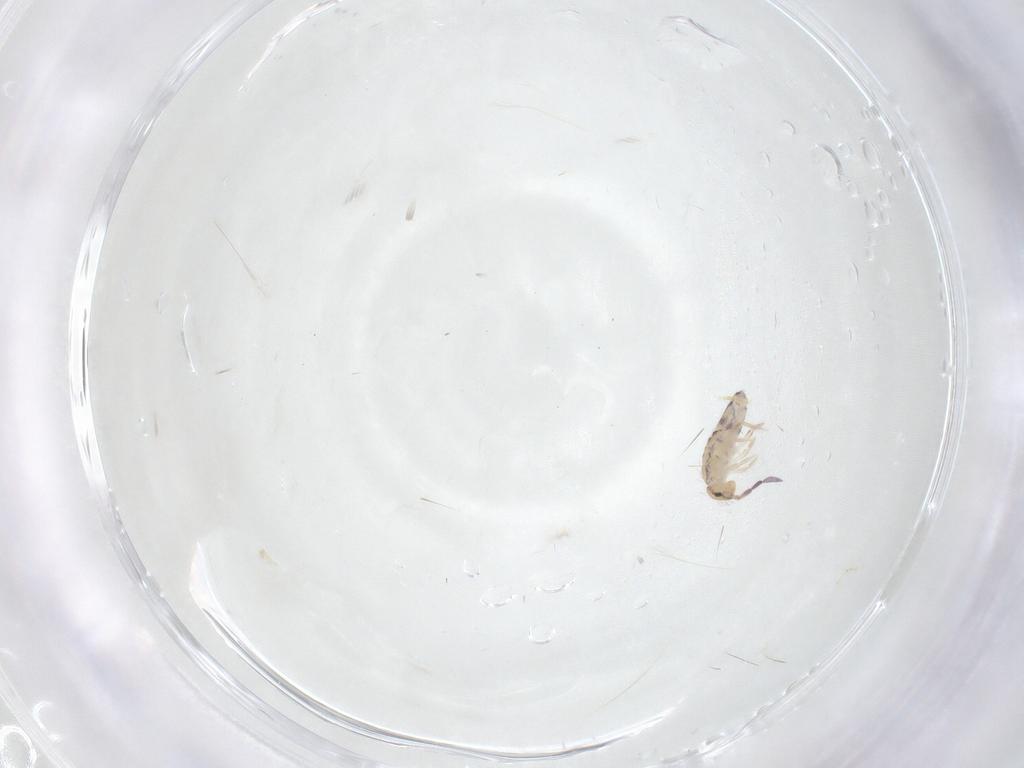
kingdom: Animalia
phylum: Arthropoda
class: Collembola
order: Entomobryomorpha
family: Entomobryidae
